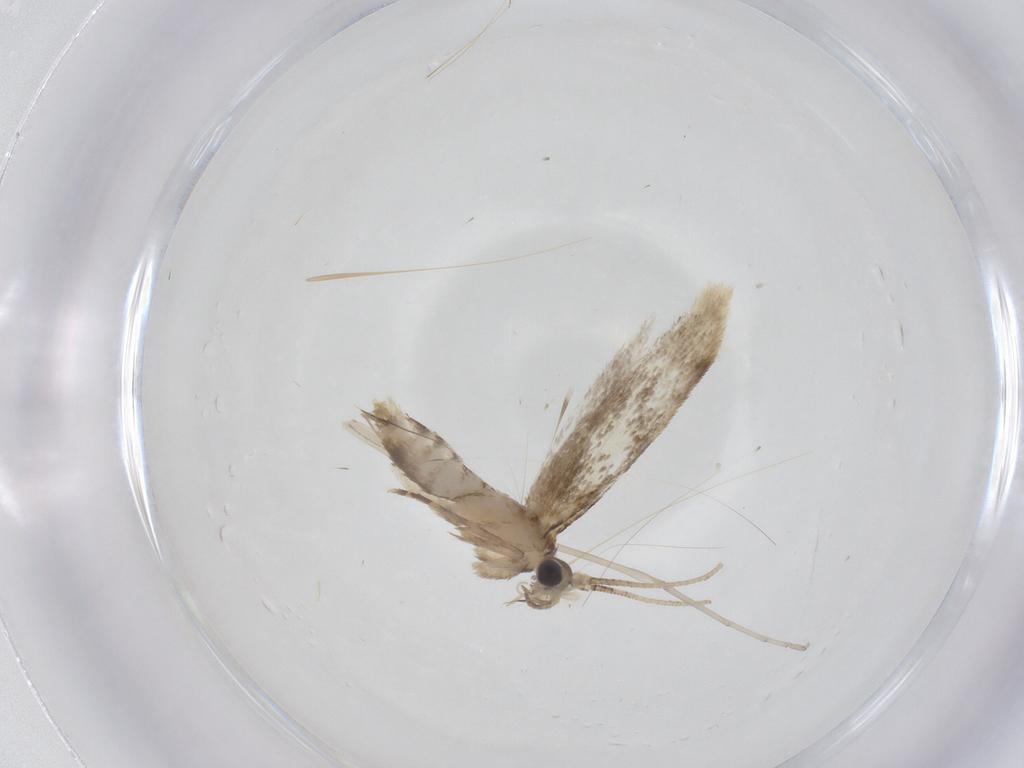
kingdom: Animalia
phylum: Arthropoda
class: Insecta
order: Lepidoptera
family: Dryadaulidae
